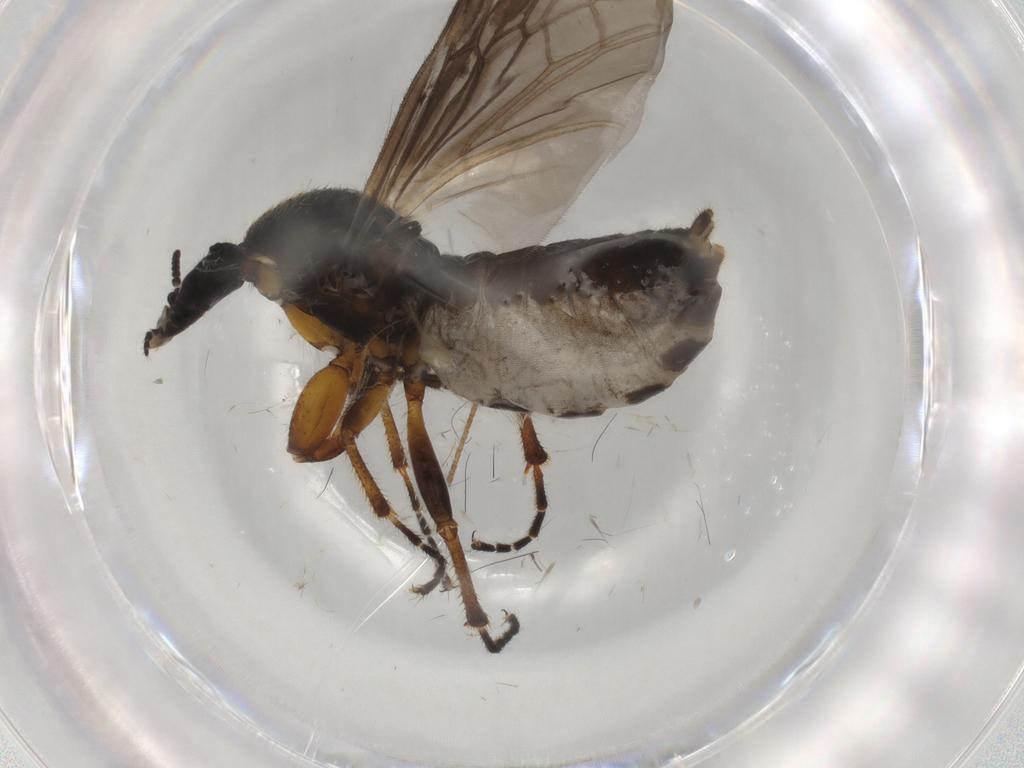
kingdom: Animalia
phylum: Arthropoda
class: Insecta
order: Diptera
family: Bibionidae
